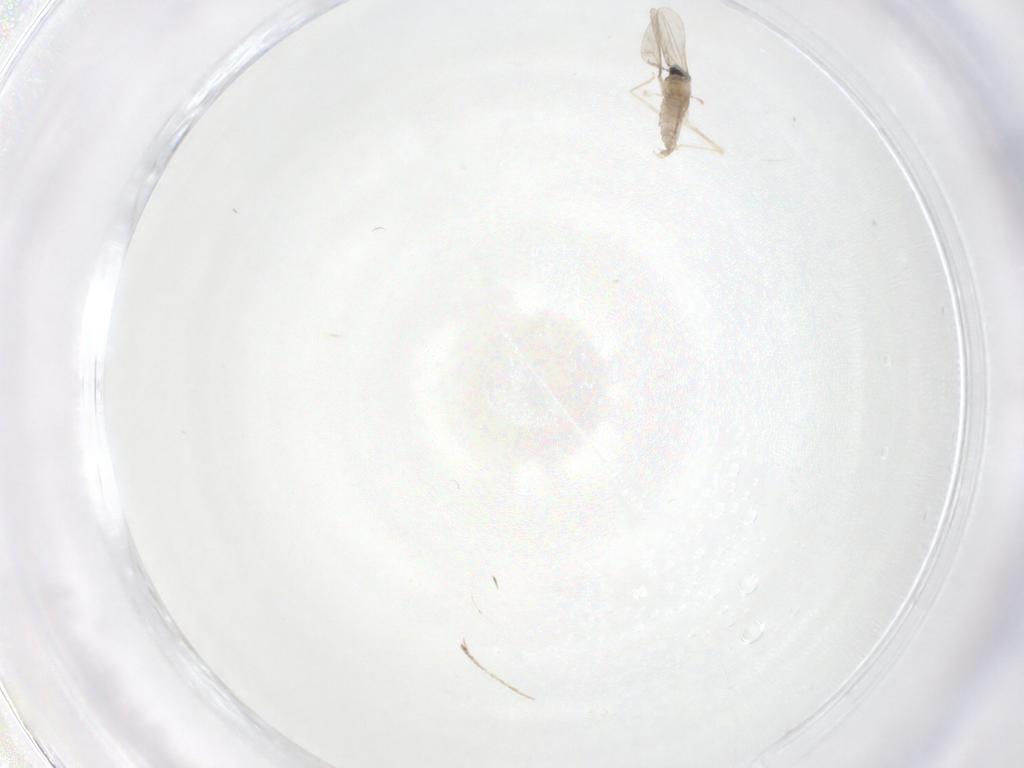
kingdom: Animalia
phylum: Arthropoda
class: Insecta
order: Diptera
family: Cecidomyiidae
